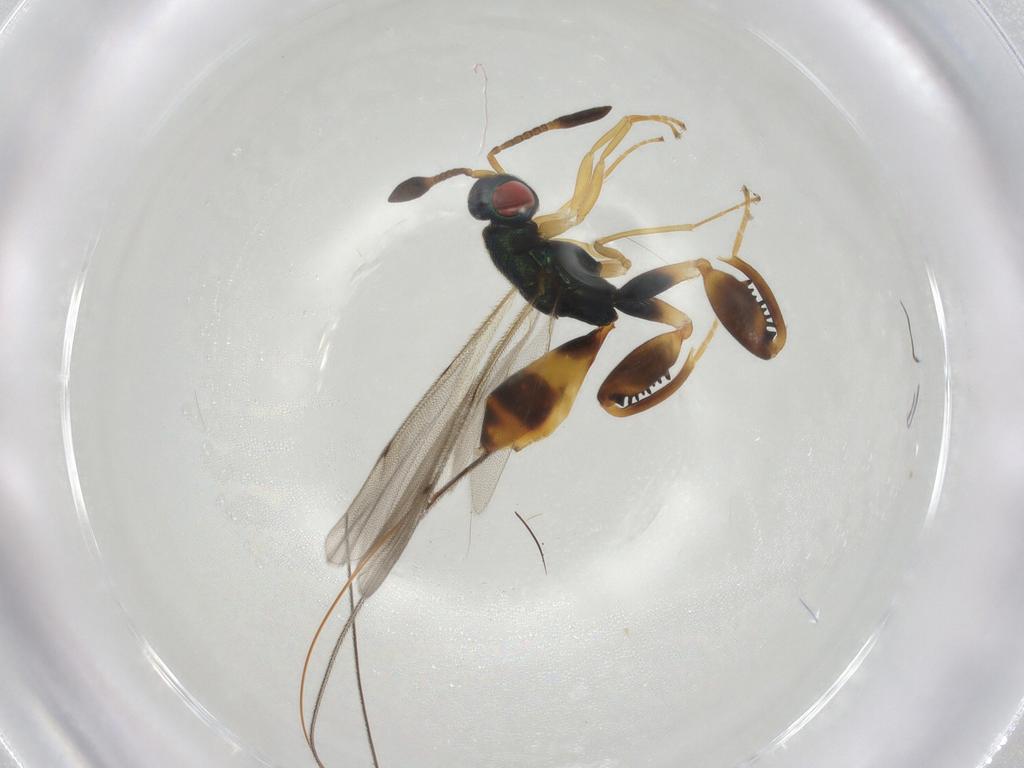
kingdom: Animalia
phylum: Arthropoda
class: Insecta
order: Hymenoptera
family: Torymidae
